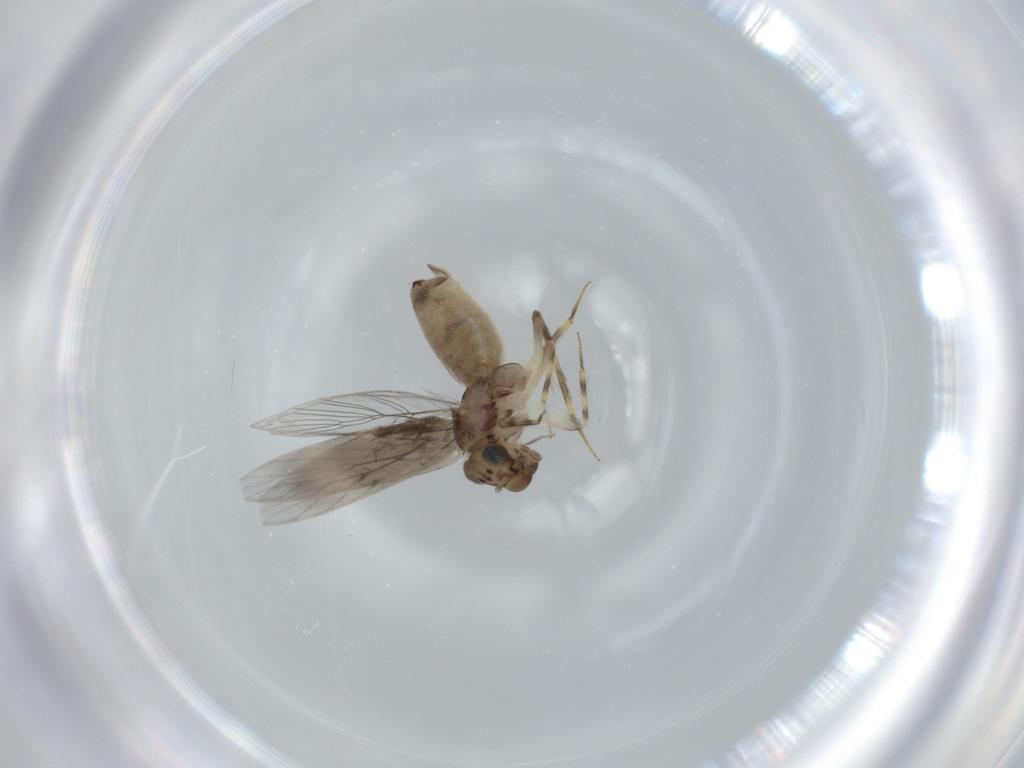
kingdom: Animalia
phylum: Arthropoda
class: Insecta
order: Psocodea
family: Lepidopsocidae
